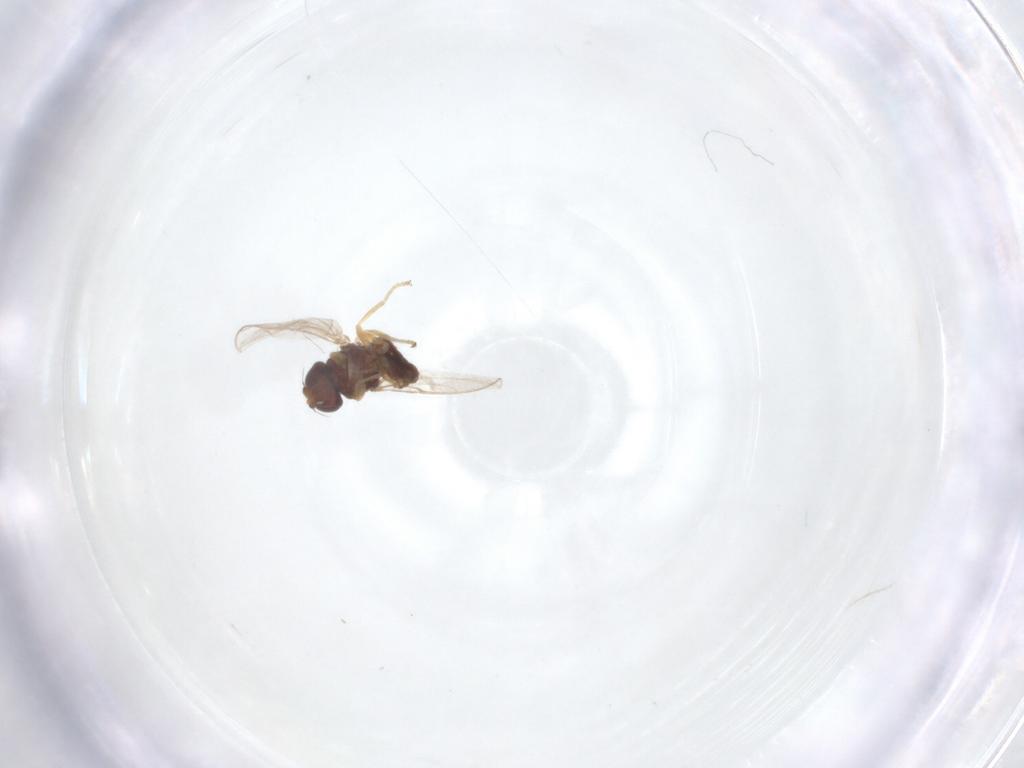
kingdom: Animalia
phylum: Arthropoda
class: Insecta
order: Diptera
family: Chloropidae
